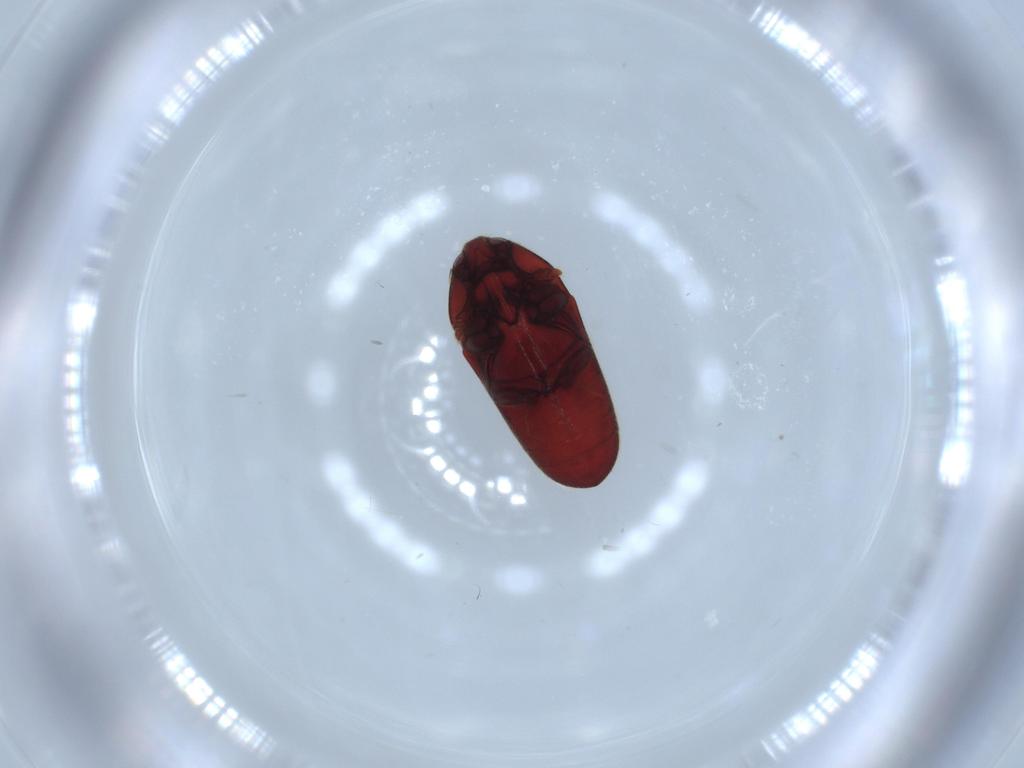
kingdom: Animalia
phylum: Arthropoda
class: Insecta
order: Coleoptera
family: Throscidae
